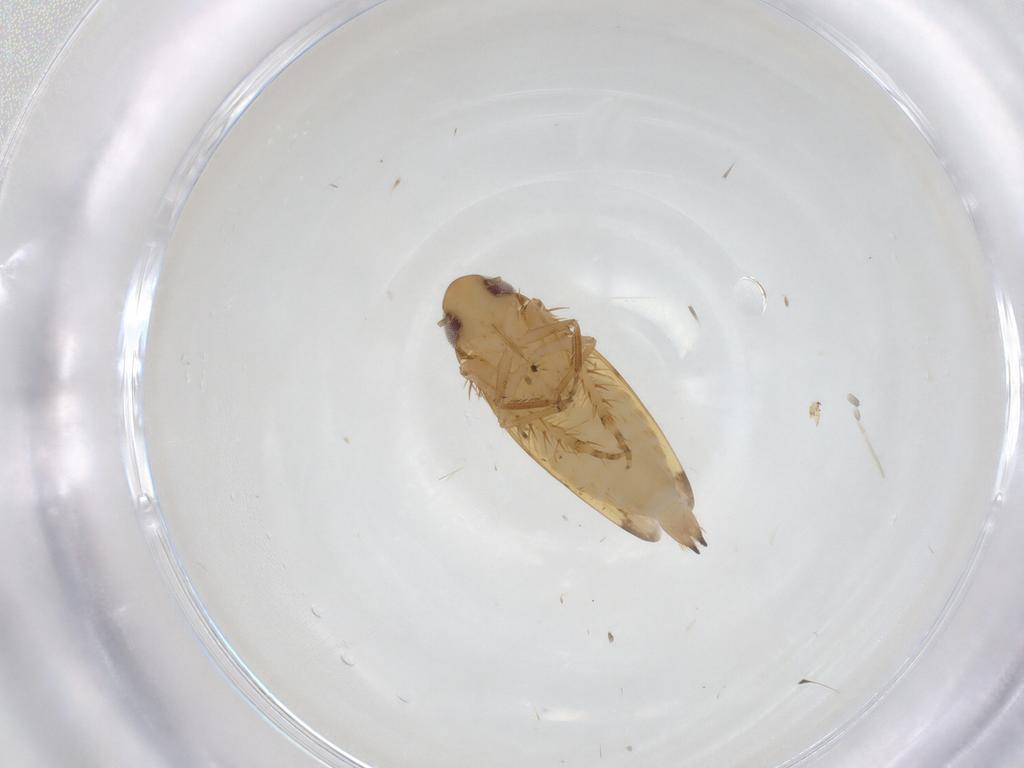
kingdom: Animalia
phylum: Arthropoda
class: Insecta
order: Hemiptera
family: Cicadellidae
